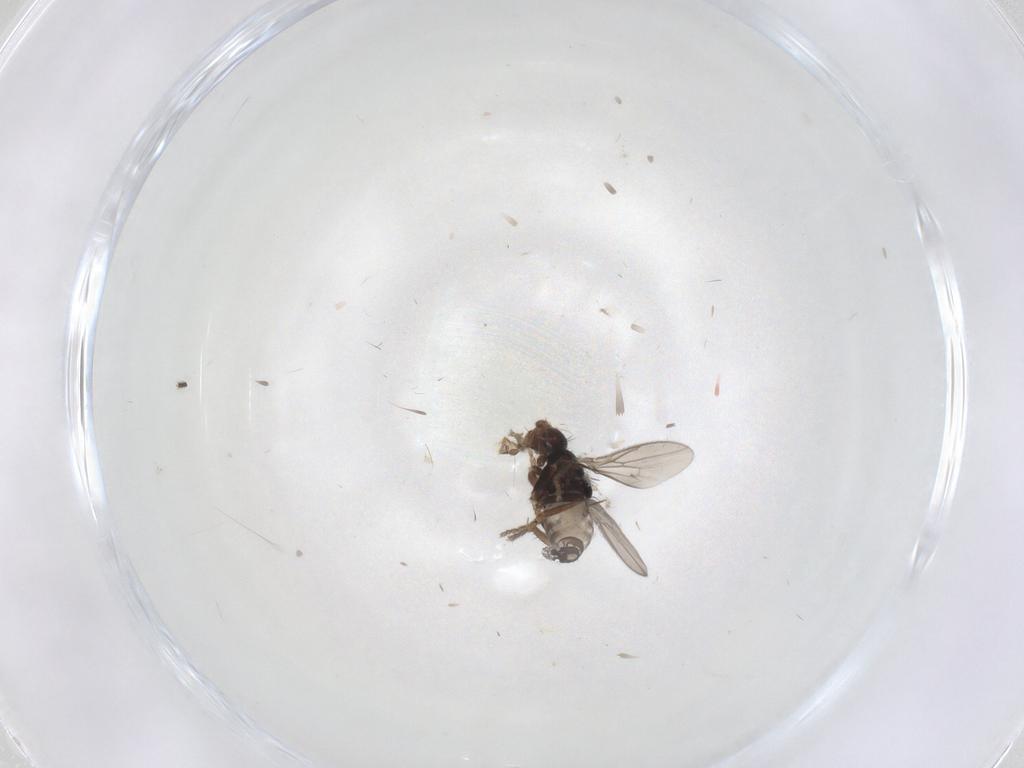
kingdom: Animalia
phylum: Arthropoda
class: Insecta
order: Diptera
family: Sphaeroceridae
